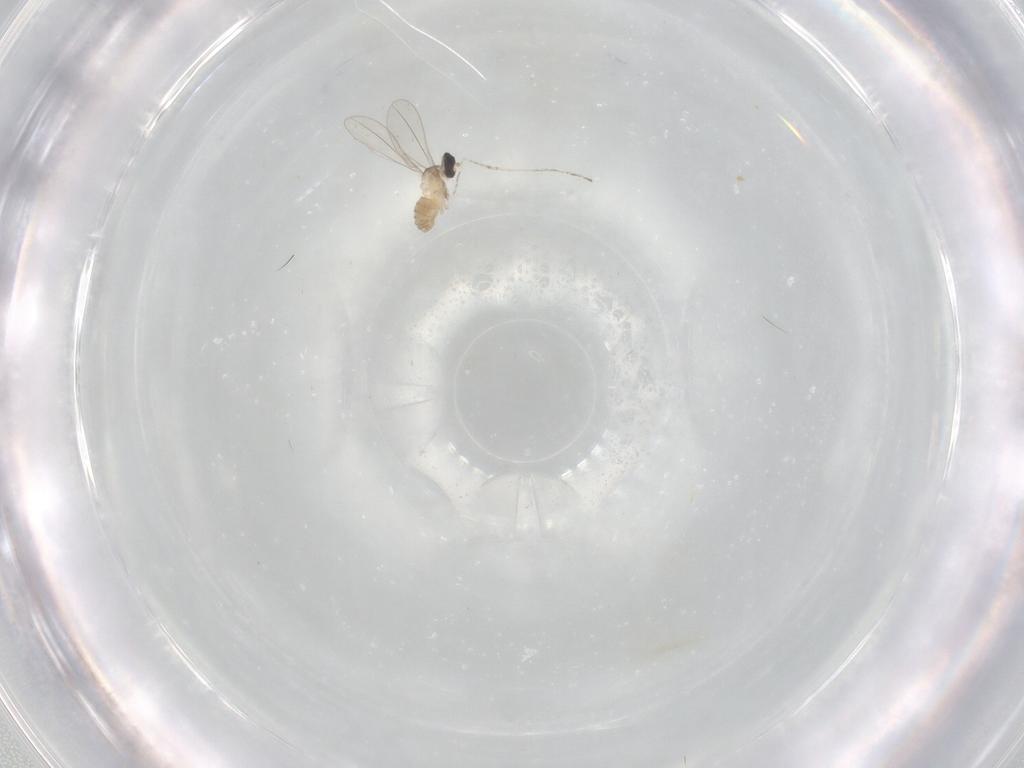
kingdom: Animalia
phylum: Arthropoda
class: Insecta
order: Diptera
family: Cecidomyiidae
